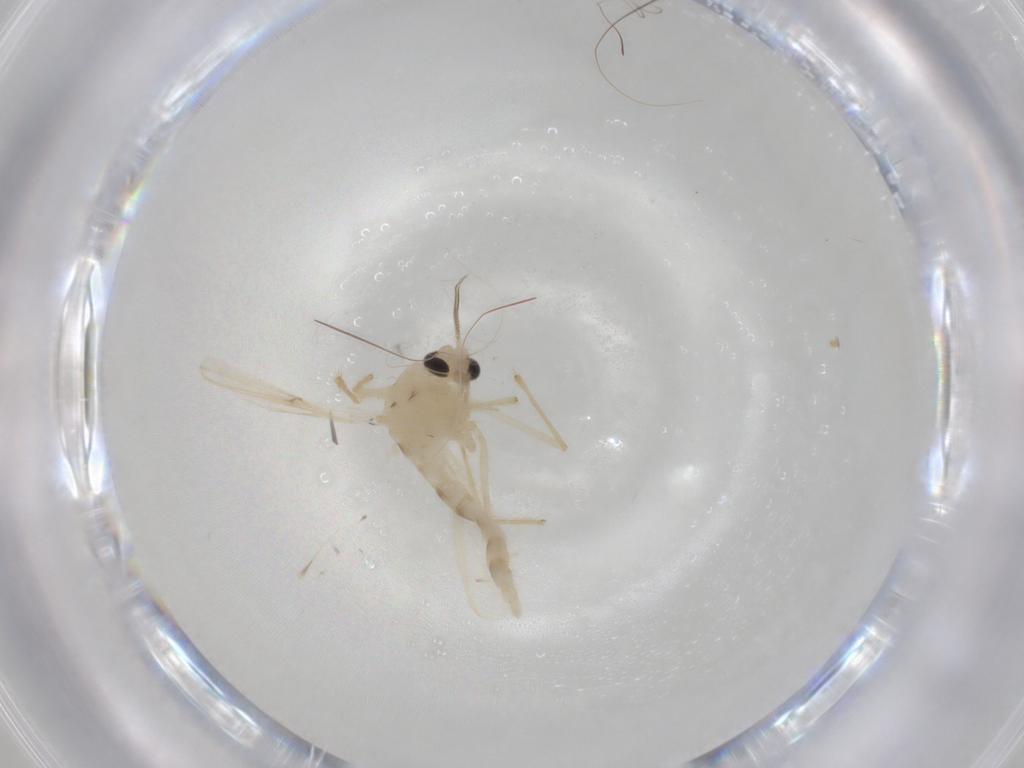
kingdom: Animalia
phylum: Arthropoda
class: Insecta
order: Diptera
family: Chironomidae
